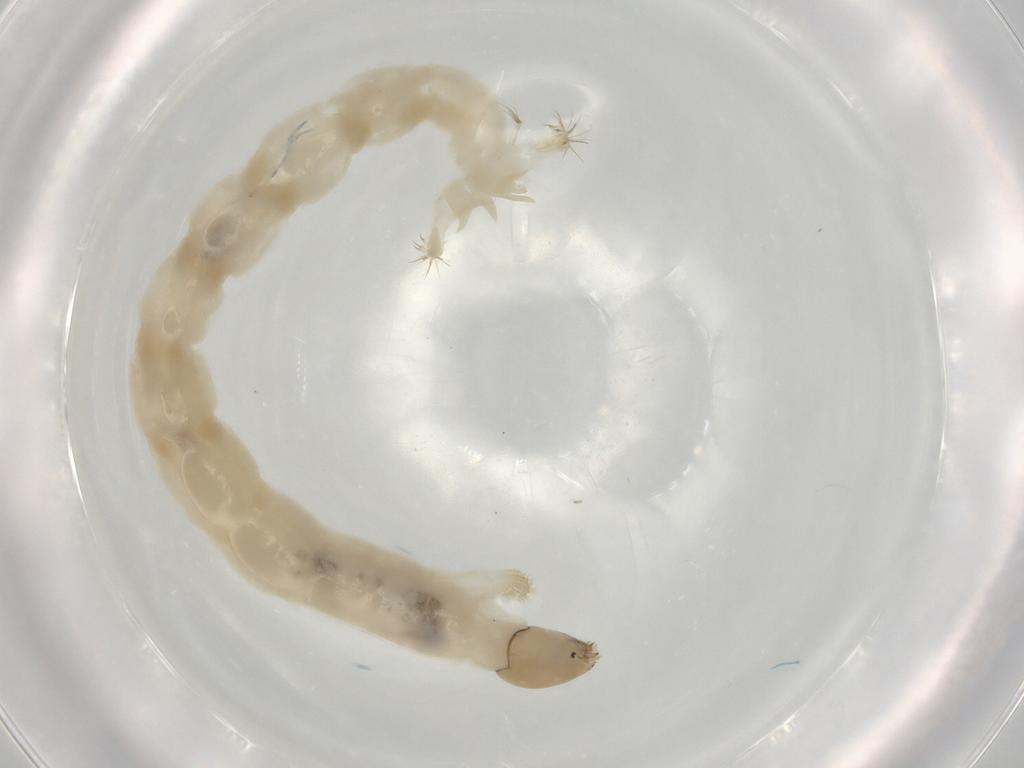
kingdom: Animalia
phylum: Arthropoda
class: Insecta
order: Diptera
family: Chironomidae
